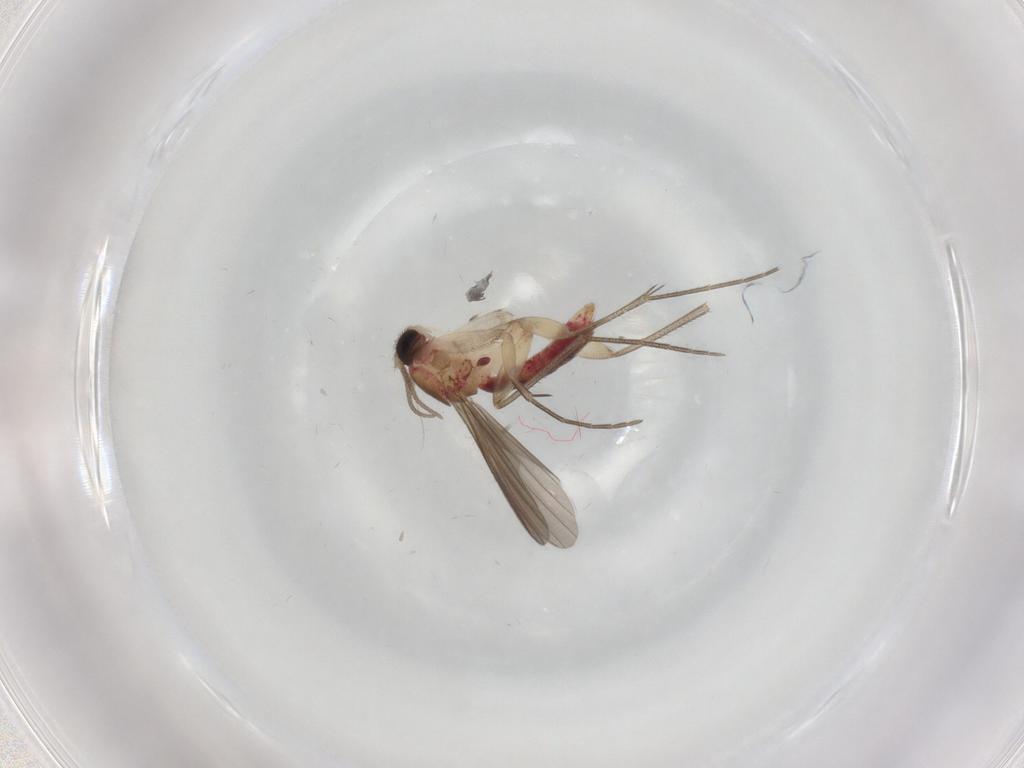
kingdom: Animalia
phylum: Arthropoda
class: Insecta
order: Diptera
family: Mycetophilidae
